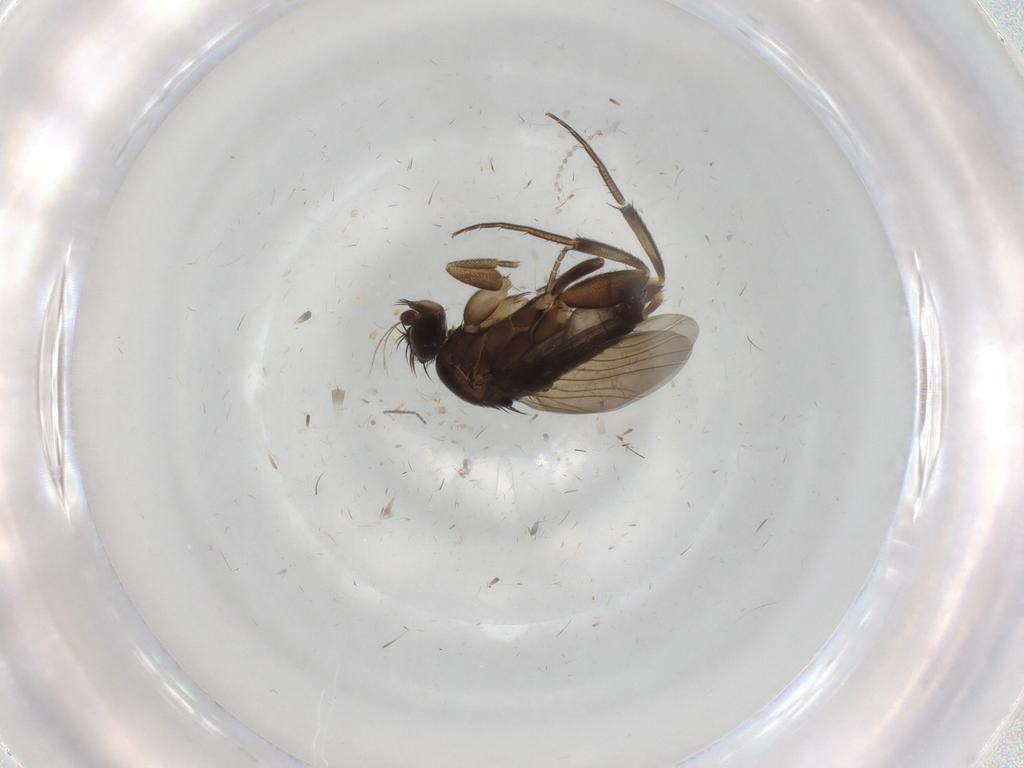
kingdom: Animalia
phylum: Arthropoda
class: Insecta
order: Diptera
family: Phoridae
